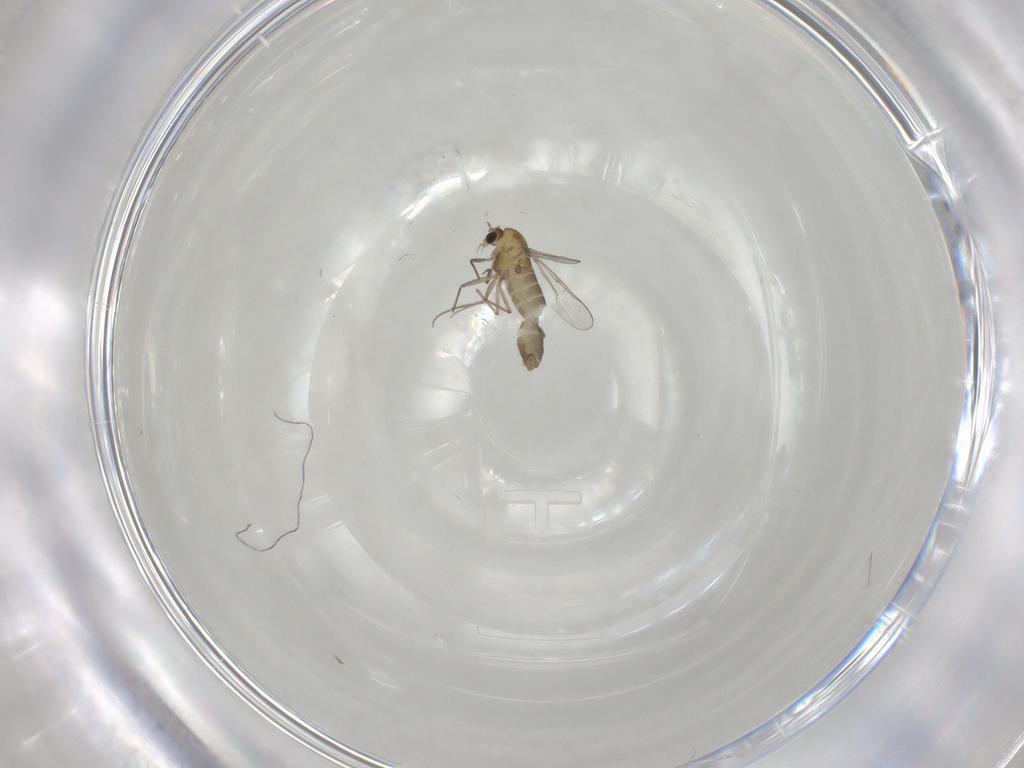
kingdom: Animalia
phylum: Arthropoda
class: Insecta
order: Diptera
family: Chironomidae
